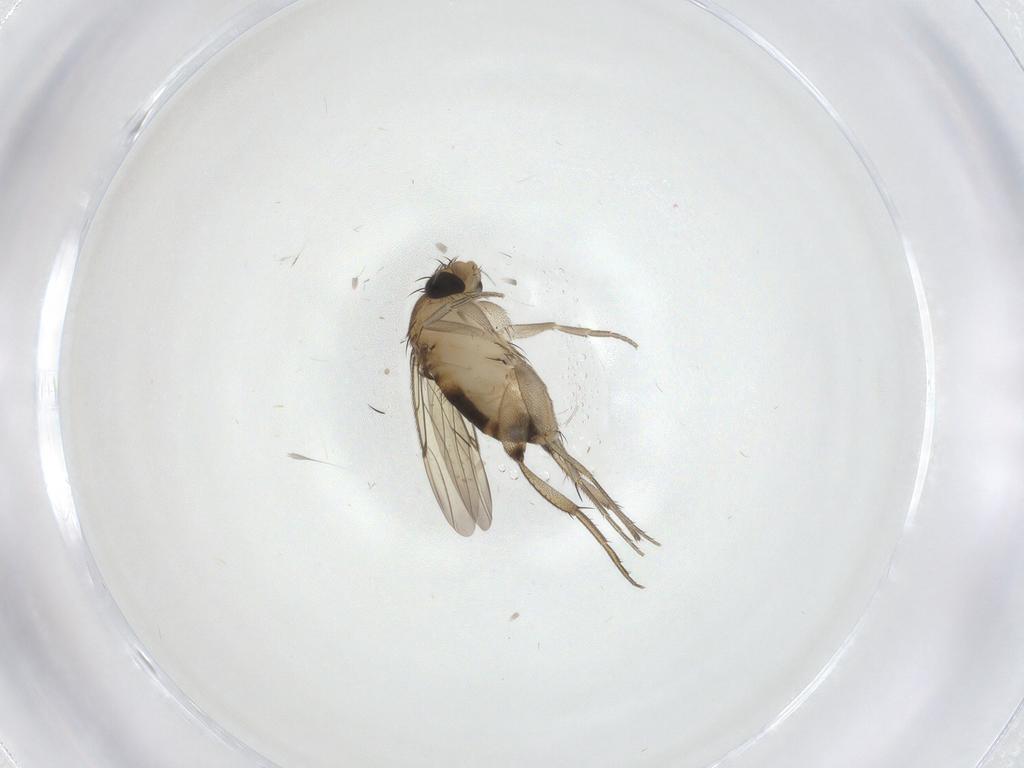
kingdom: Animalia
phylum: Arthropoda
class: Insecta
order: Diptera
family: Phoridae
